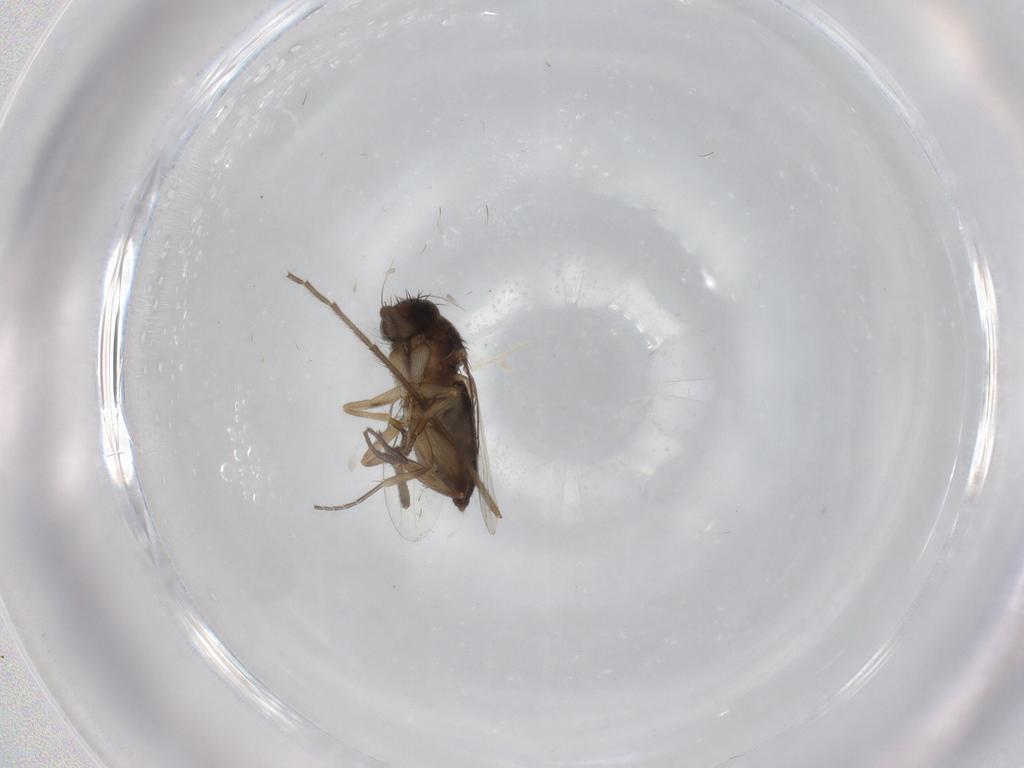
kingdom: Animalia
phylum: Arthropoda
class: Insecta
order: Diptera
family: Phoridae
